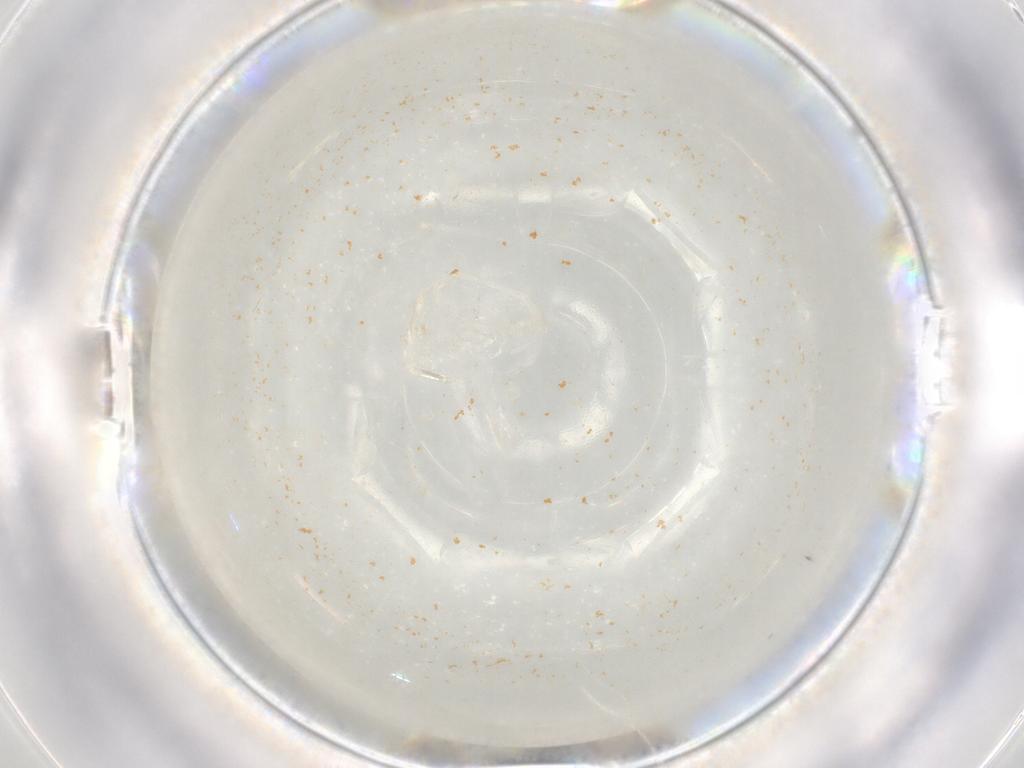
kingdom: Animalia
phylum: Arthropoda
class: Insecta
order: Hymenoptera
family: Mymaridae
